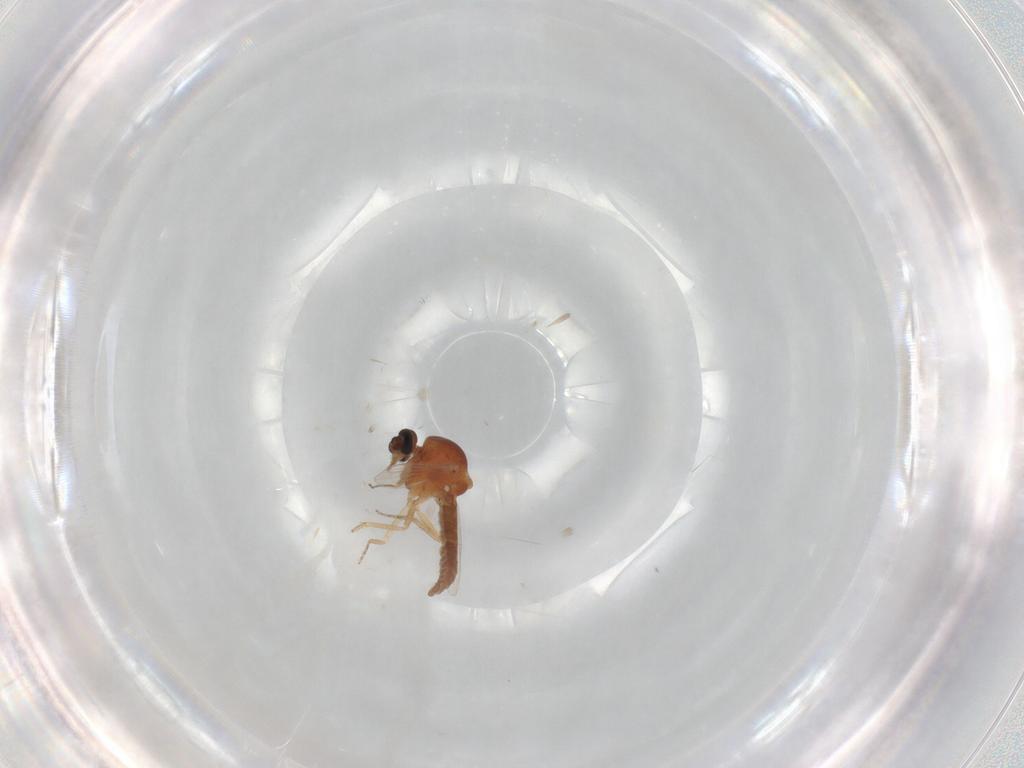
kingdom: Animalia
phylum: Arthropoda
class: Insecta
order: Diptera
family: Ceratopogonidae
